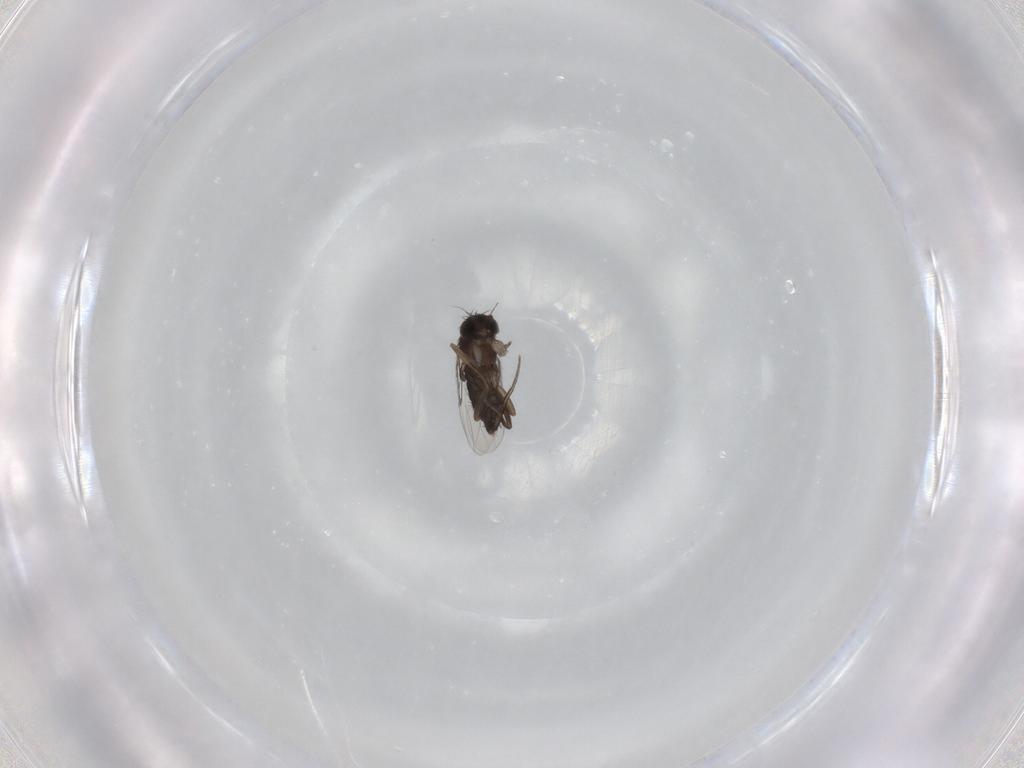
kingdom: Animalia
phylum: Arthropoda
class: Insecta
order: Diptera
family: Phoridae
